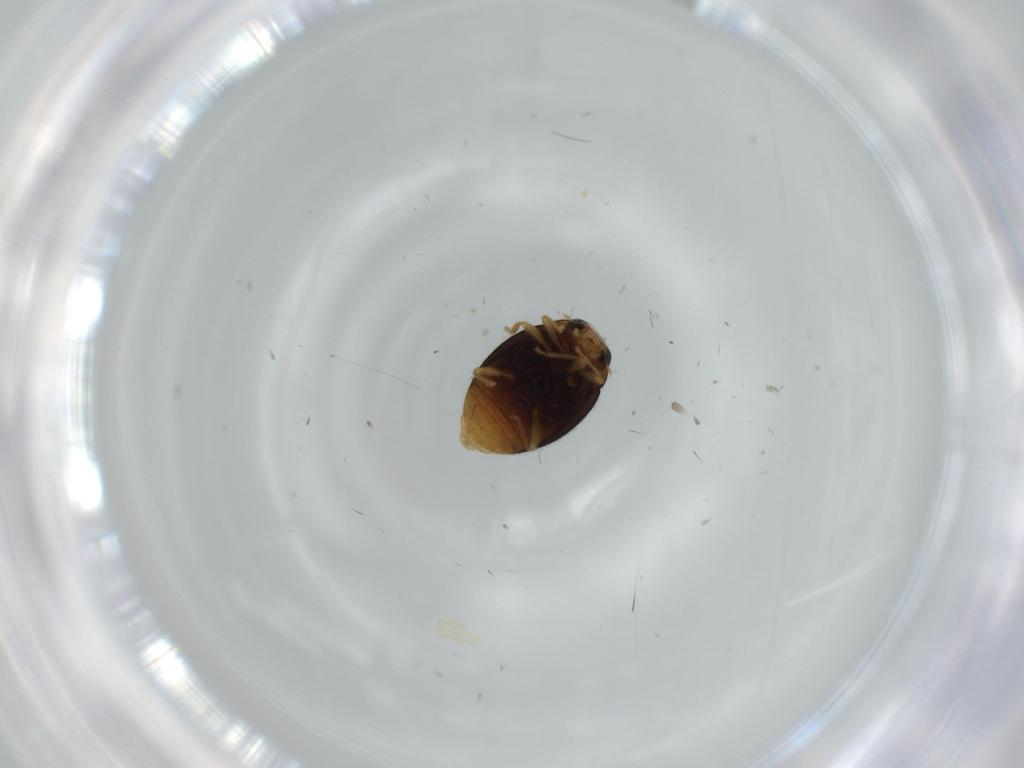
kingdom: Animalia
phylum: Arthropoda
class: Insecta
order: Coleoptera
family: Coccinellidae
